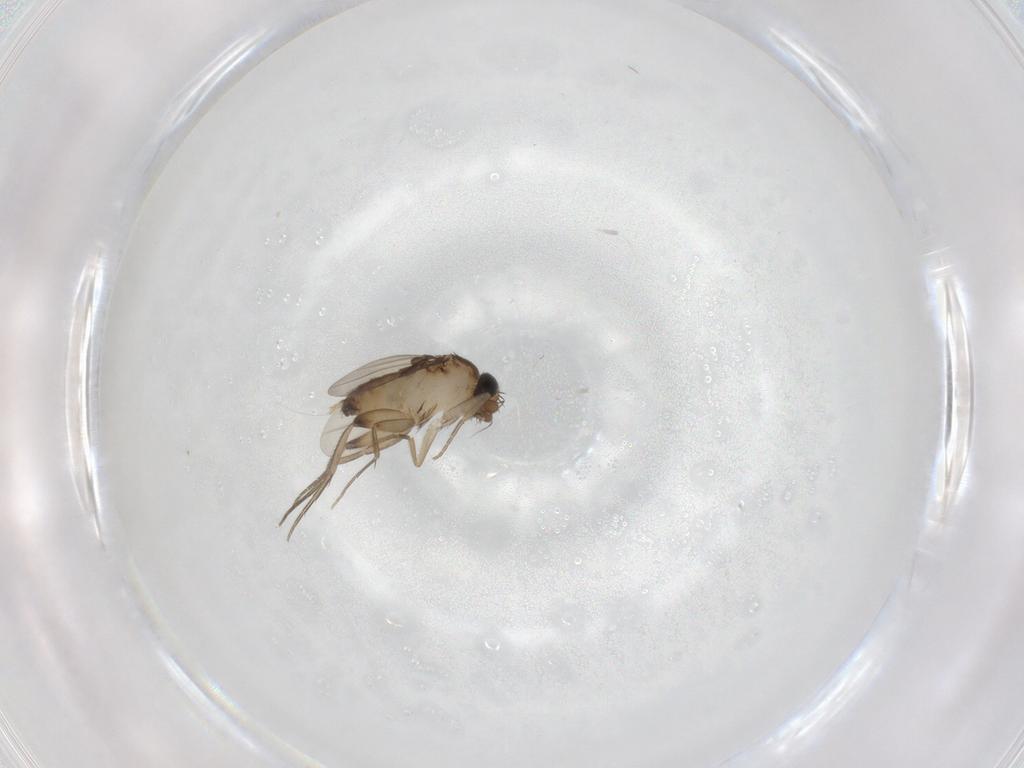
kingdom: Animalia
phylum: Arthropoda
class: Insecta
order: Diptera
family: Phoridae
